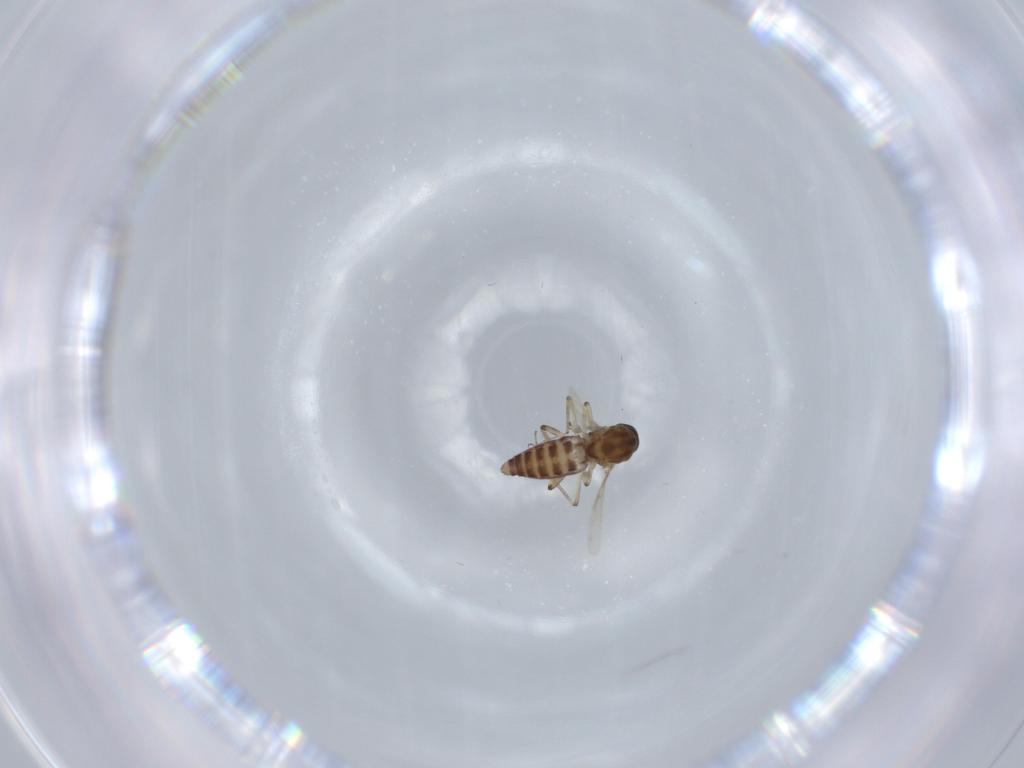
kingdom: Animalia
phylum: Arthropoda
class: Insecta
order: Diptera
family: Ceratopogonidae
